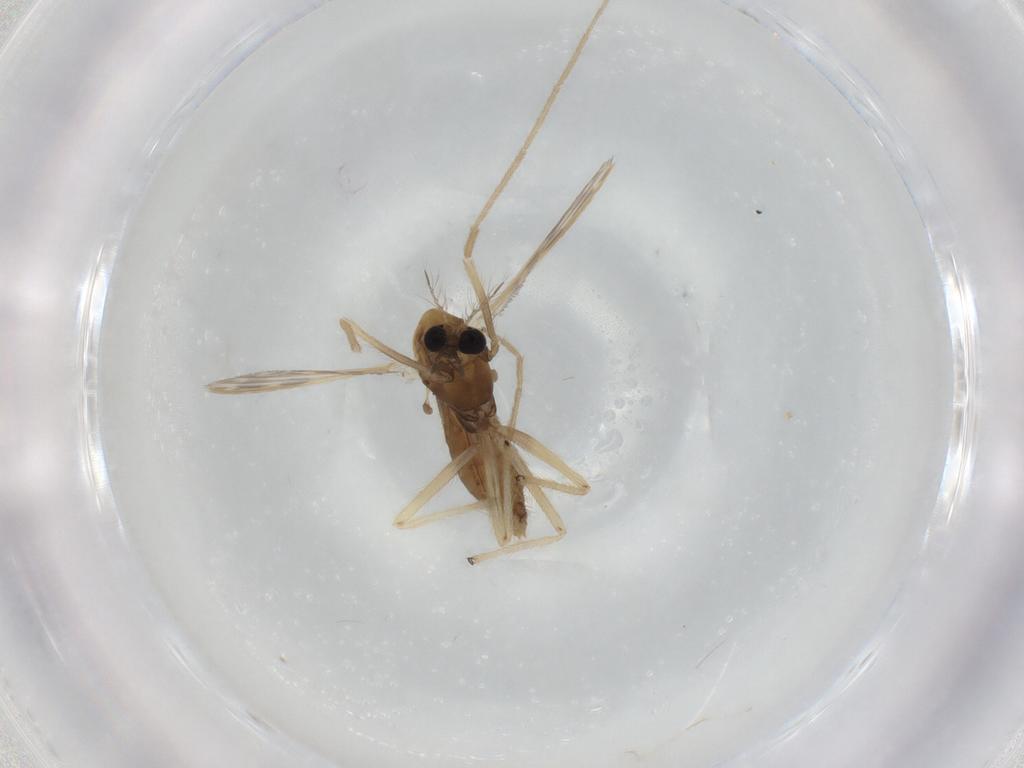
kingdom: Animalia
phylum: Arthropoda
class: Insecta
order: Diptera
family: Chironomidae
